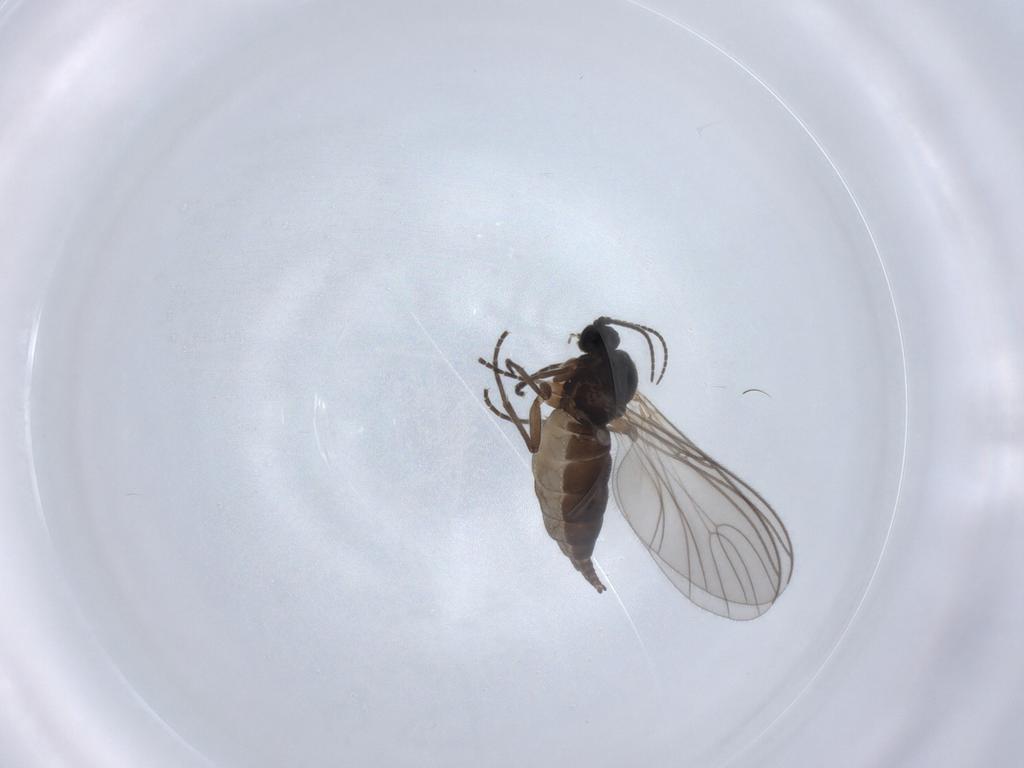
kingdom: Animalia
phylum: Arthropoda
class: Insecta
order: Diptera
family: Sciaridae
